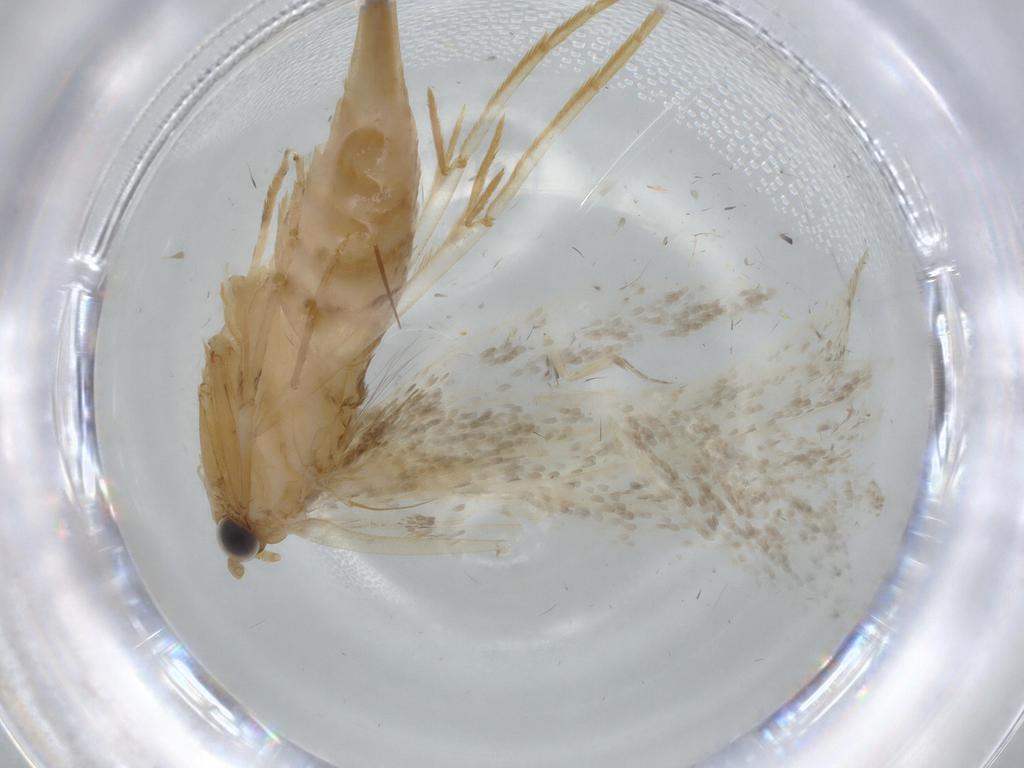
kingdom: Animalia
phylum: Arthropoda
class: Insecta
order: Lepidoptera
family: Tineidae
